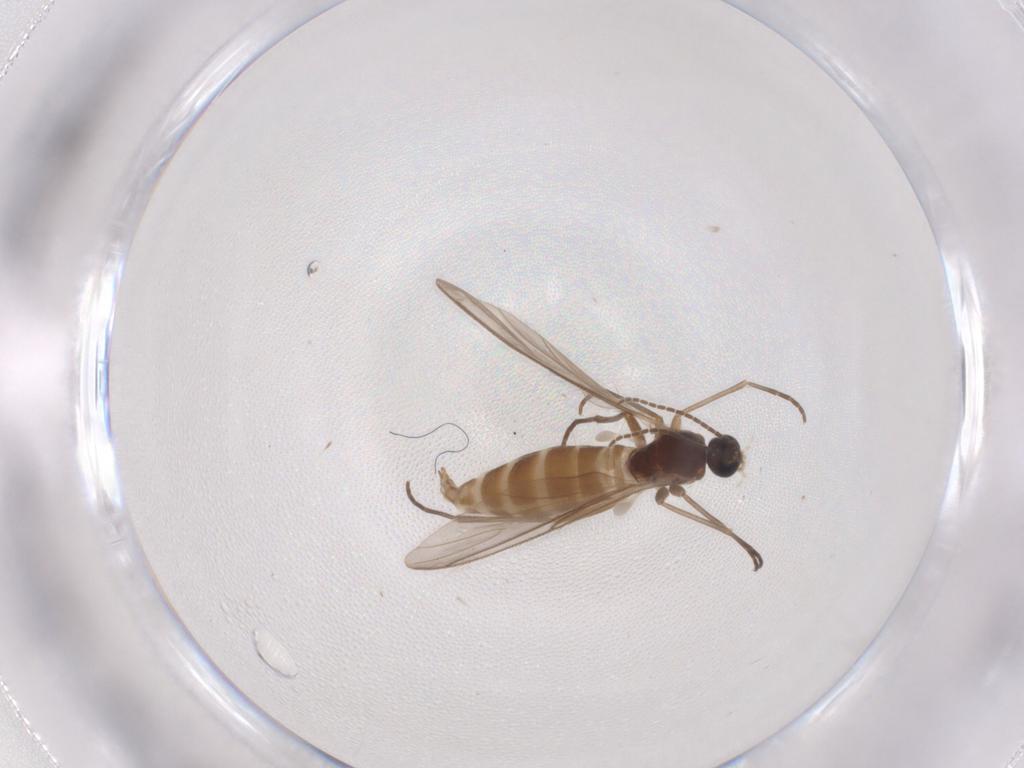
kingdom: Animalia
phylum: Arthropoda
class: Insecta
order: Diptera
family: Sciaridae
